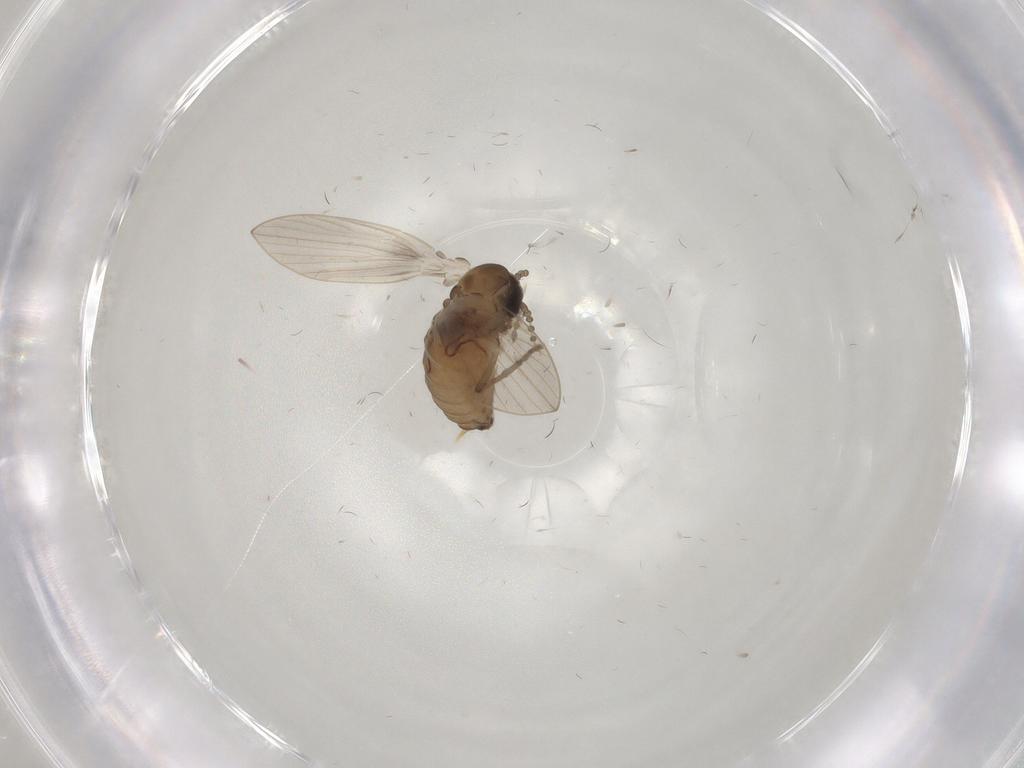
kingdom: Animalia
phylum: Arthropoda
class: Insecta
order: Diptera
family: Psychodidae
